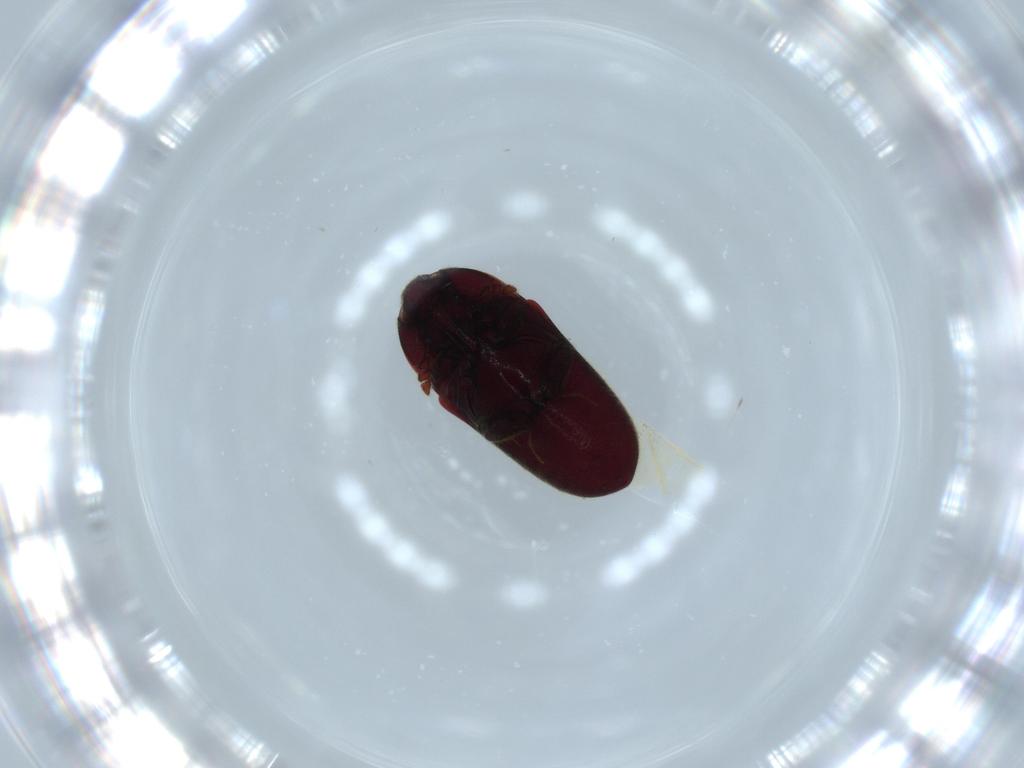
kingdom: Animalia
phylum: Arthropoda
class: Insecta
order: Coleoptera
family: Throscidae
